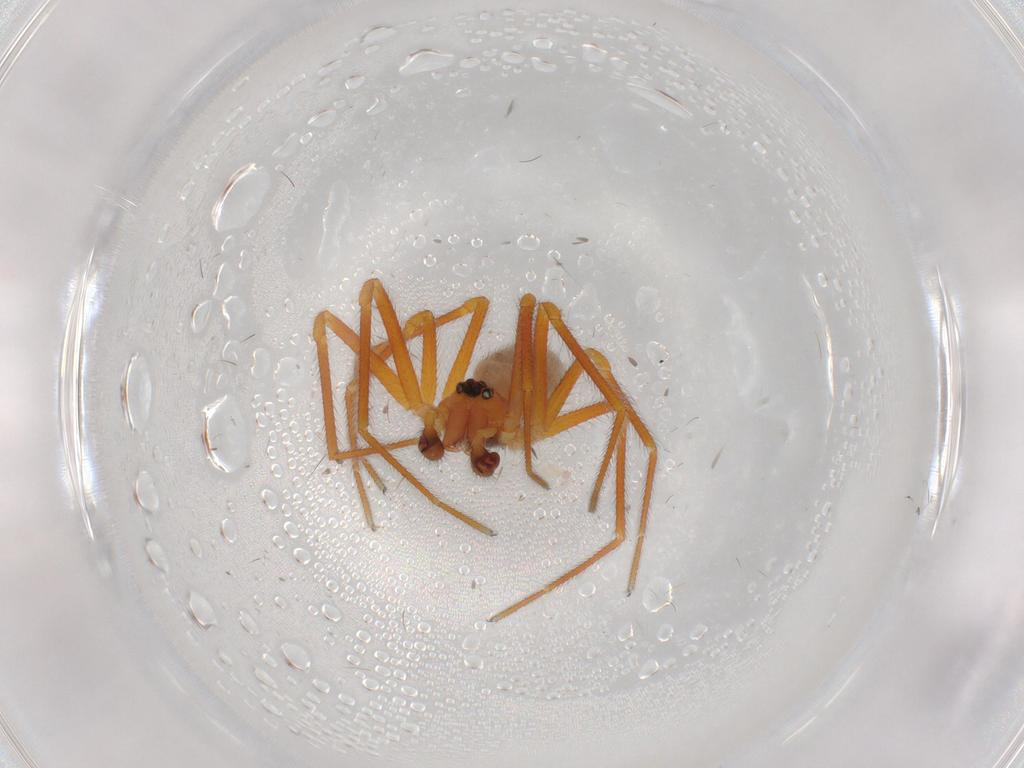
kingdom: Animalia
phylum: Arthropoda
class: Arachnida
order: Araneae
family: Linyphiidae
